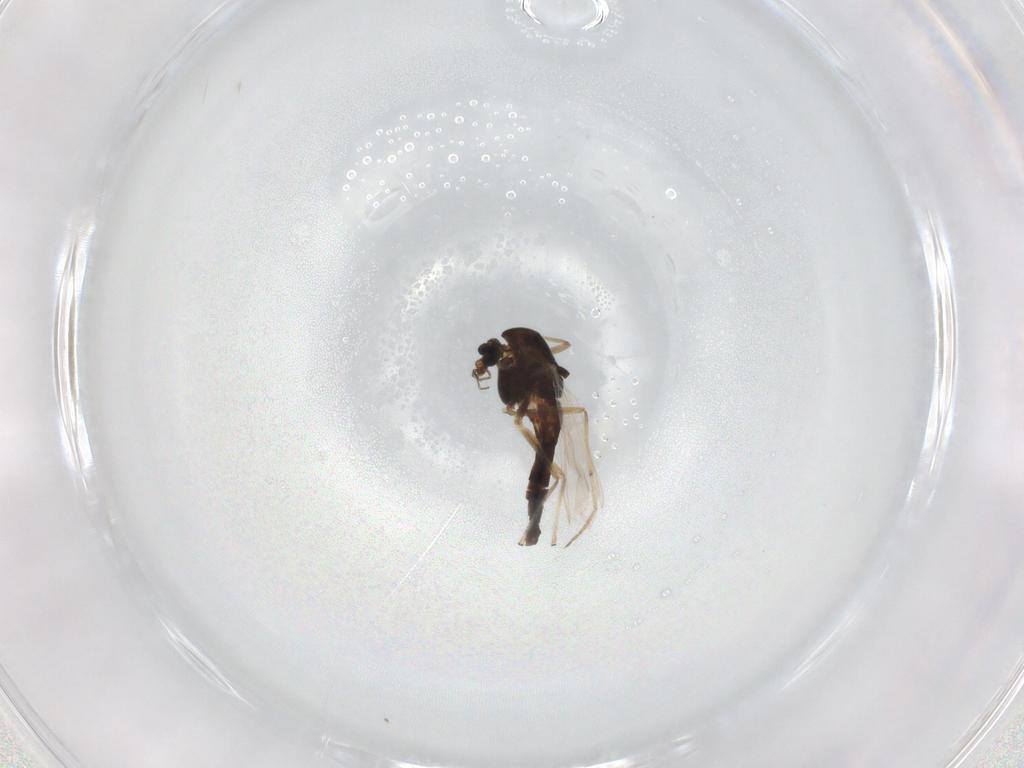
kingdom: Animalia
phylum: Arthropoda
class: Insecta
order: Diptera
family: Chironomidae
